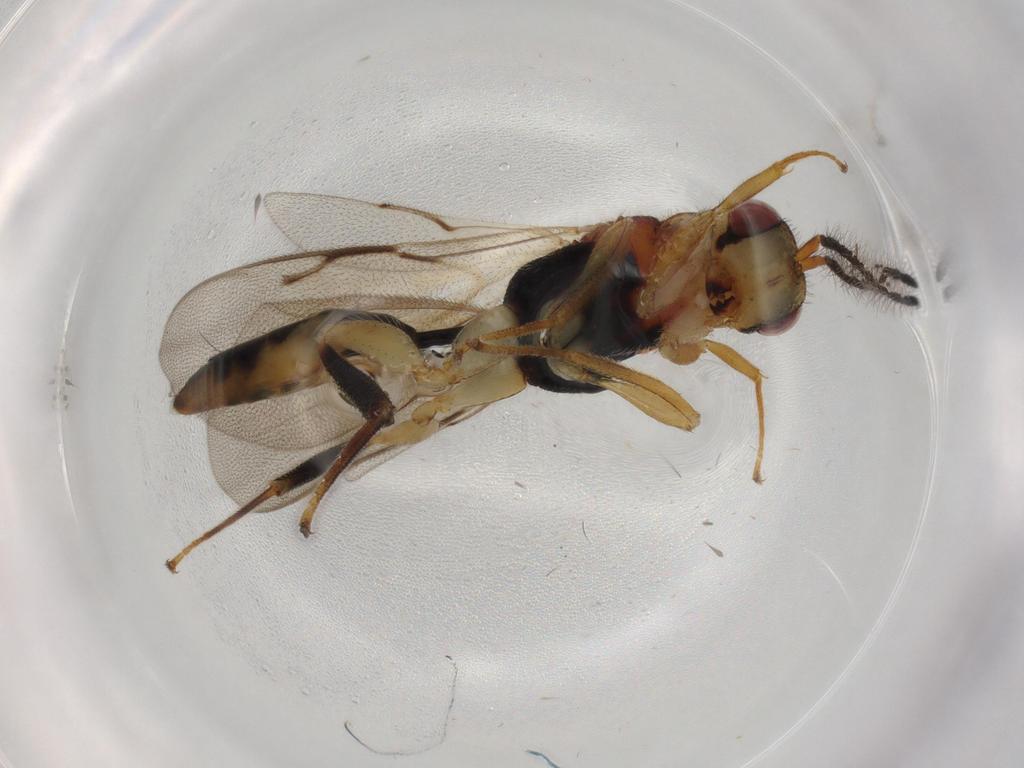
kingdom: Animalia
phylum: Arthropoda
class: Insecta
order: Hymenoptera
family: Eurytomidae
